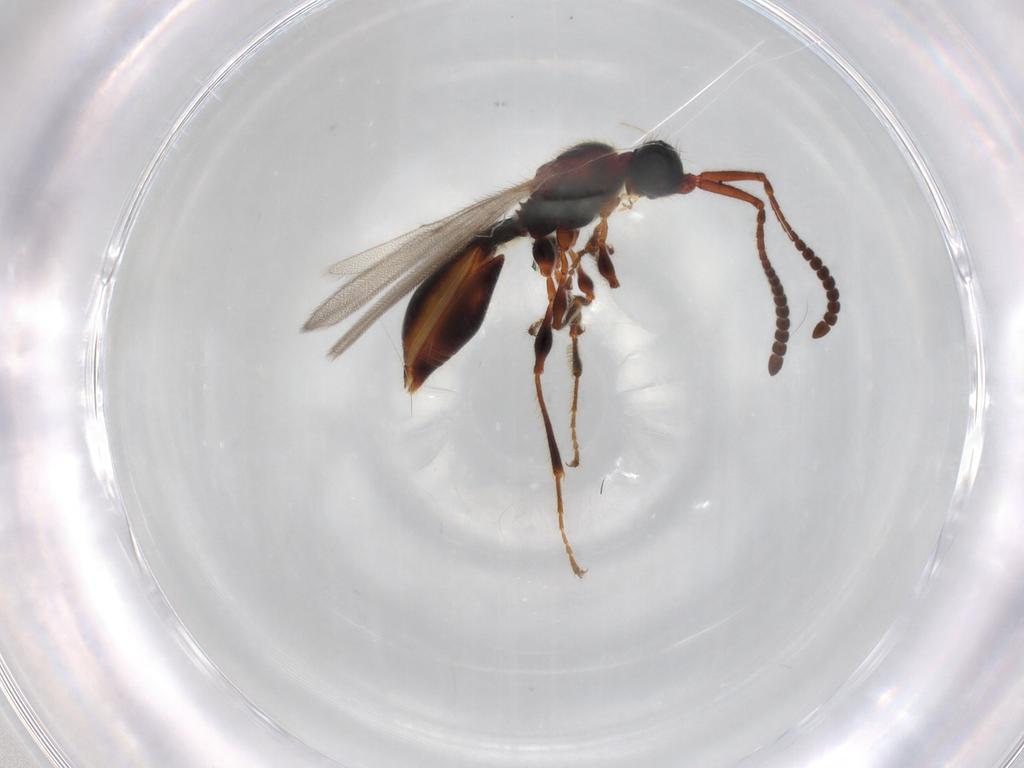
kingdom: Animalia
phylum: Arthropoda
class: Insecta
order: Hymenoptera
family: Diapriidae
